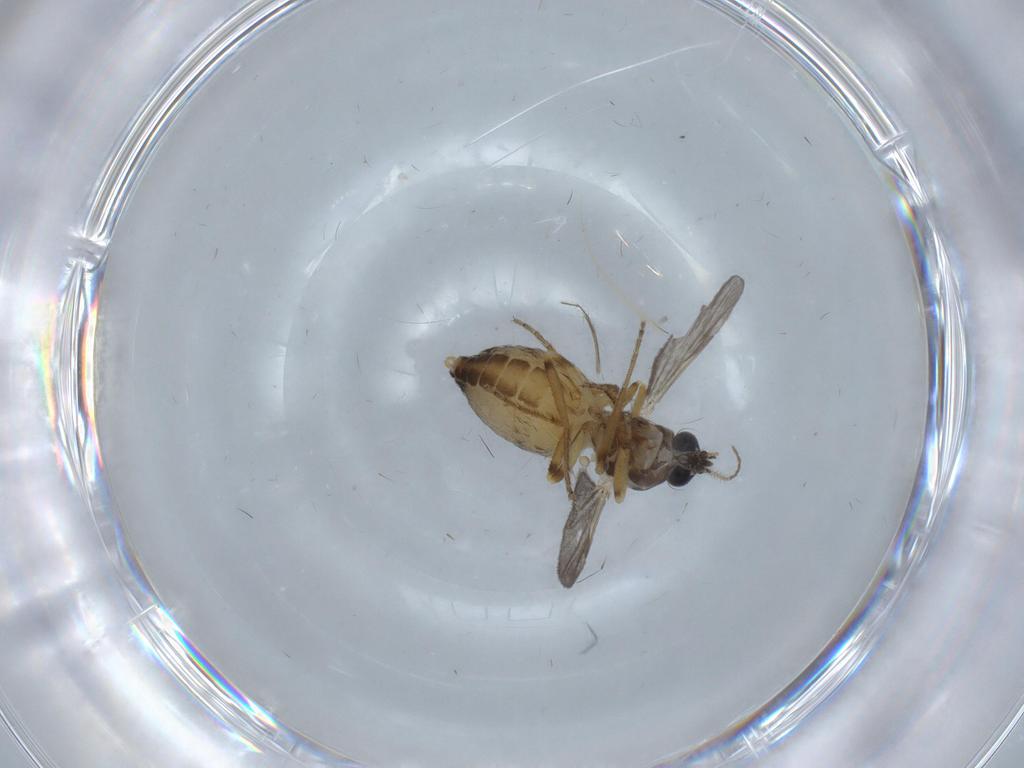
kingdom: Animalia
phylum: Arthropoda
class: Insecta
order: Diptera
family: Ceratopogonidae
